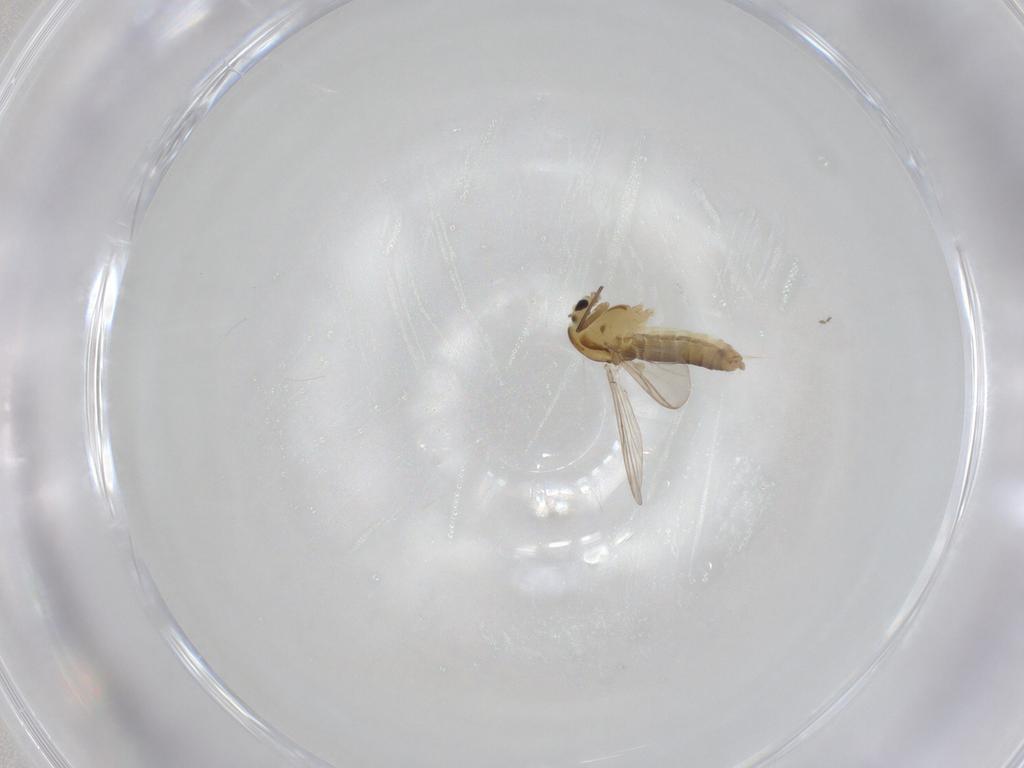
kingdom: Animalia
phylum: Arthropoda
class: Insecta
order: Diptera
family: Chironomidae
